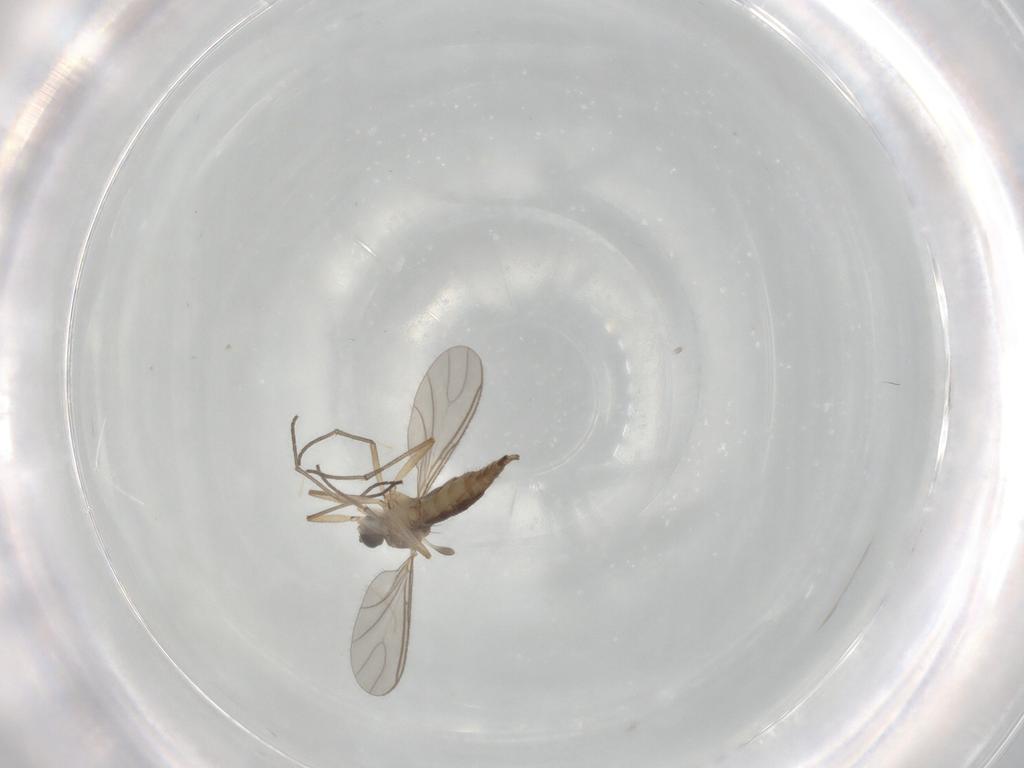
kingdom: Animalia
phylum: Arthropoda
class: Insecta
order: Diptera
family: Sciaridae
